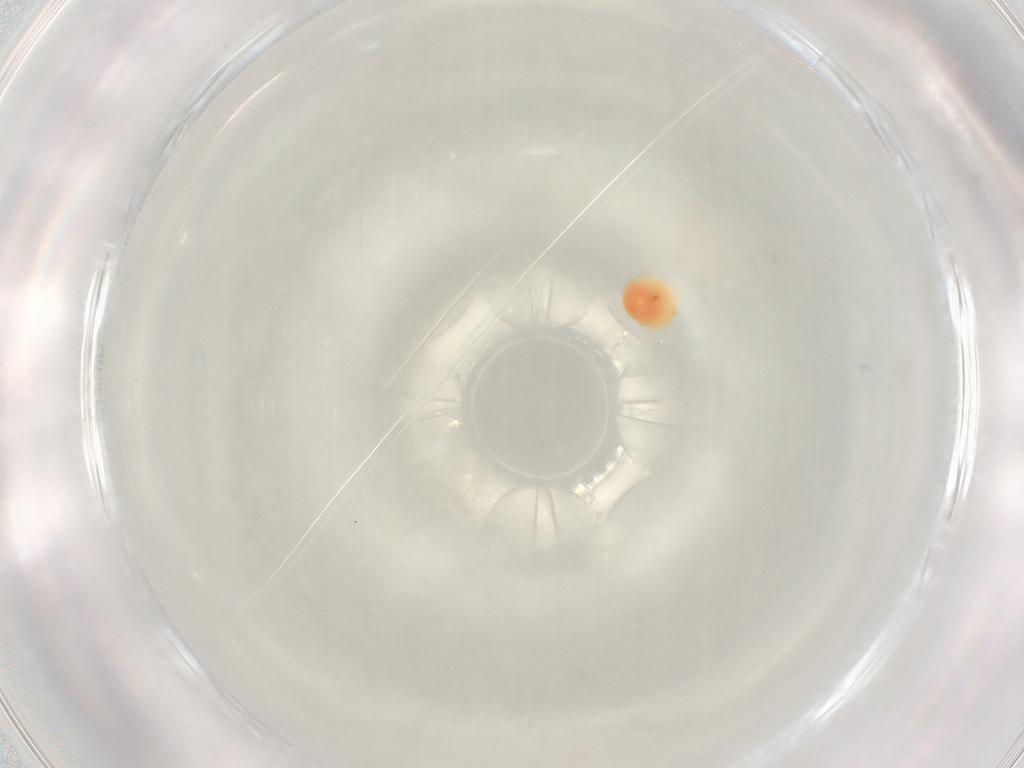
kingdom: Animalia
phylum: Arthropoda
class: Arachnida
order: Trombidiformes
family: Hydryphantidae
